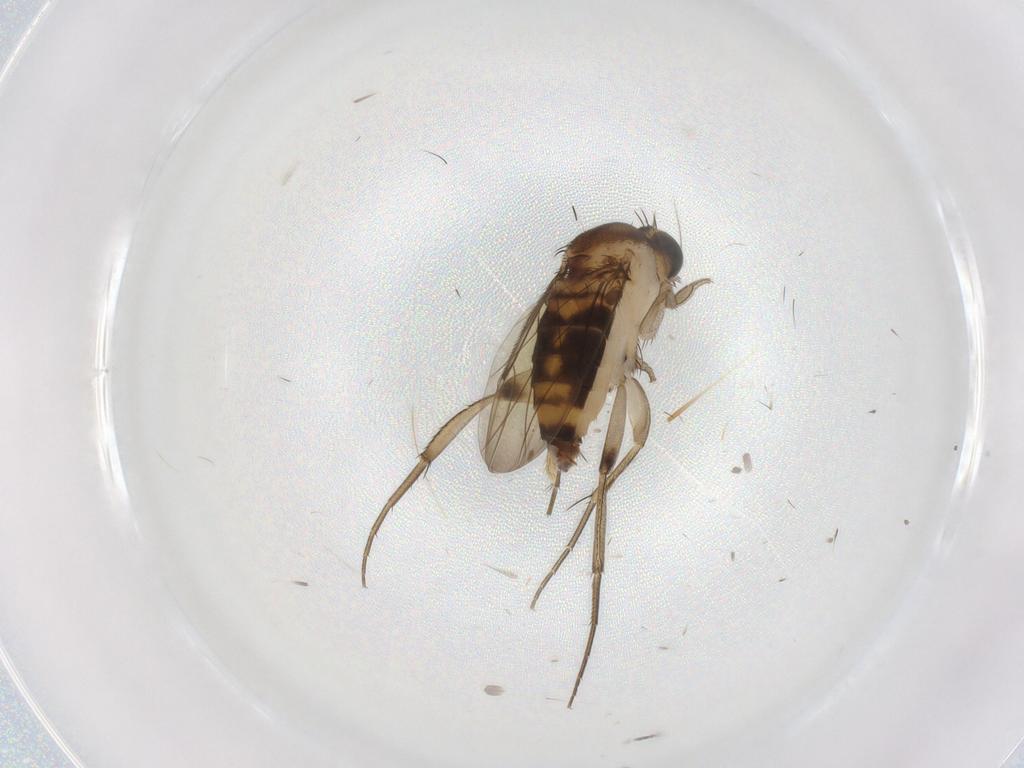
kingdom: Animalia
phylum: Arthropoda
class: Insecta
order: Diptera
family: Phoridae
